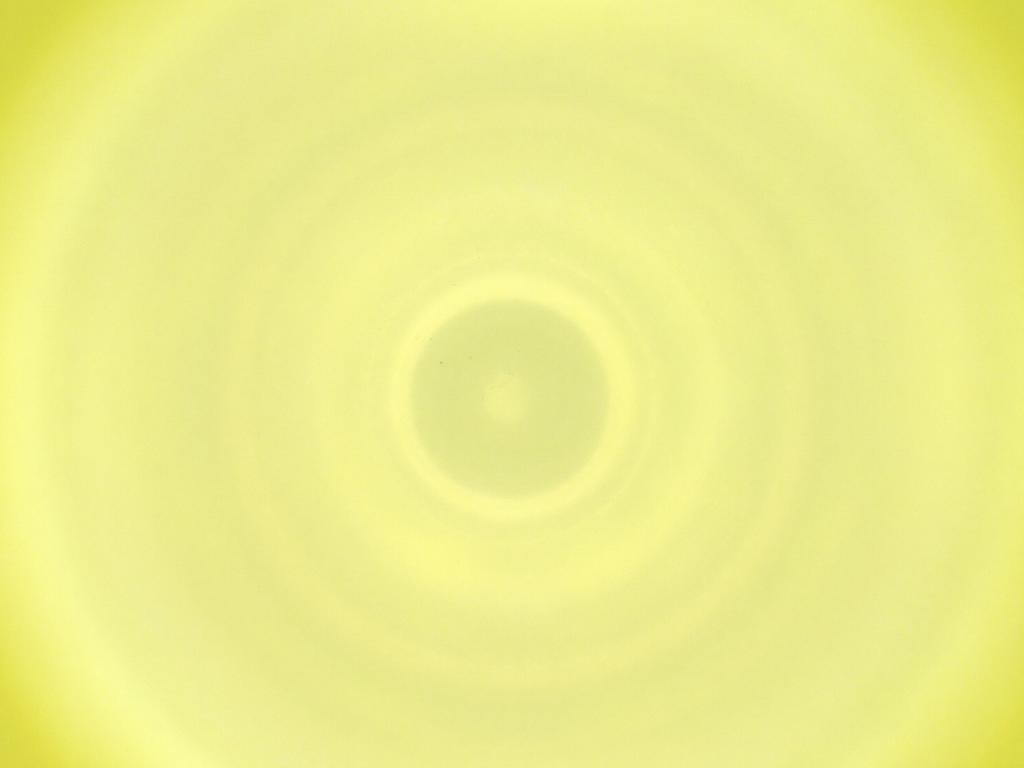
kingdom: Animalia
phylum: Arthropoda
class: Insecta
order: Diptera
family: Cecidomyiidae
